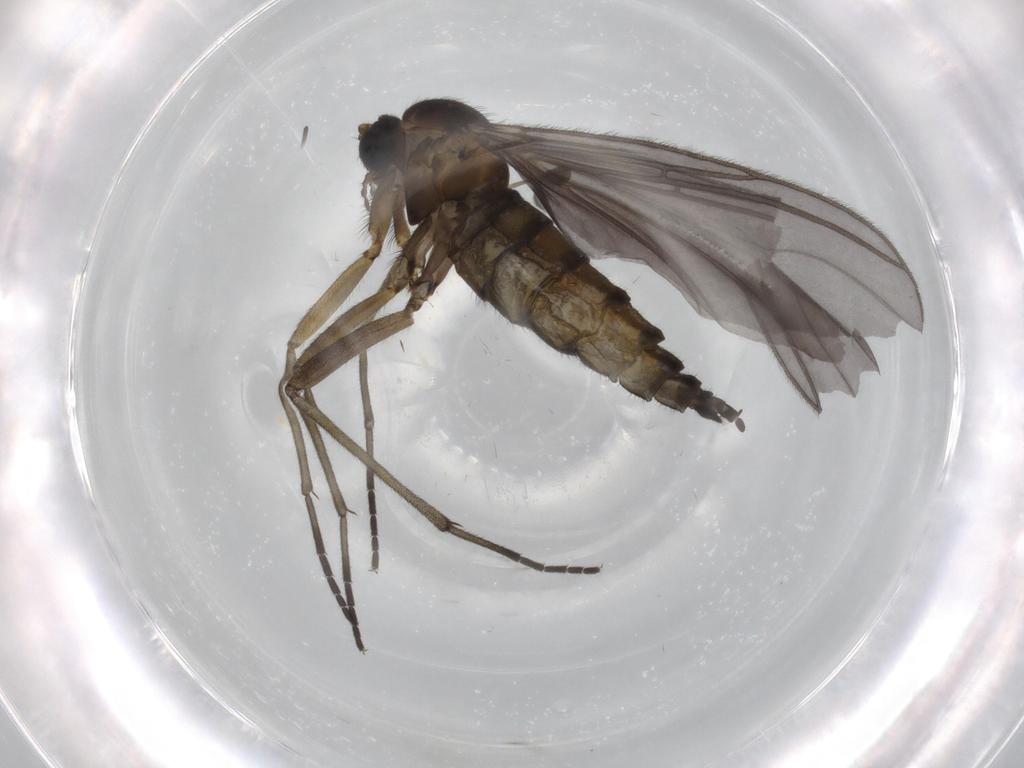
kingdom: Animalia
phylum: Arthropoda
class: Insecta
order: Diptera
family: Sciaridae
